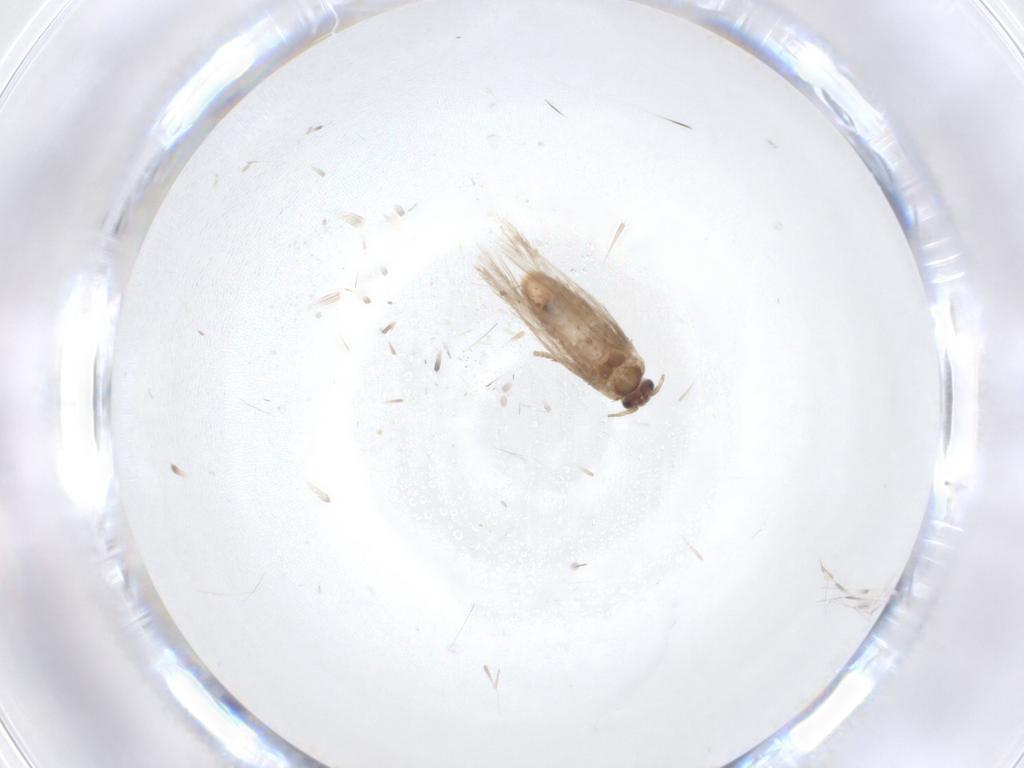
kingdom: Animalia
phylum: Arthropoda
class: Insecta
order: Lepidoptera
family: Nepticulidae
